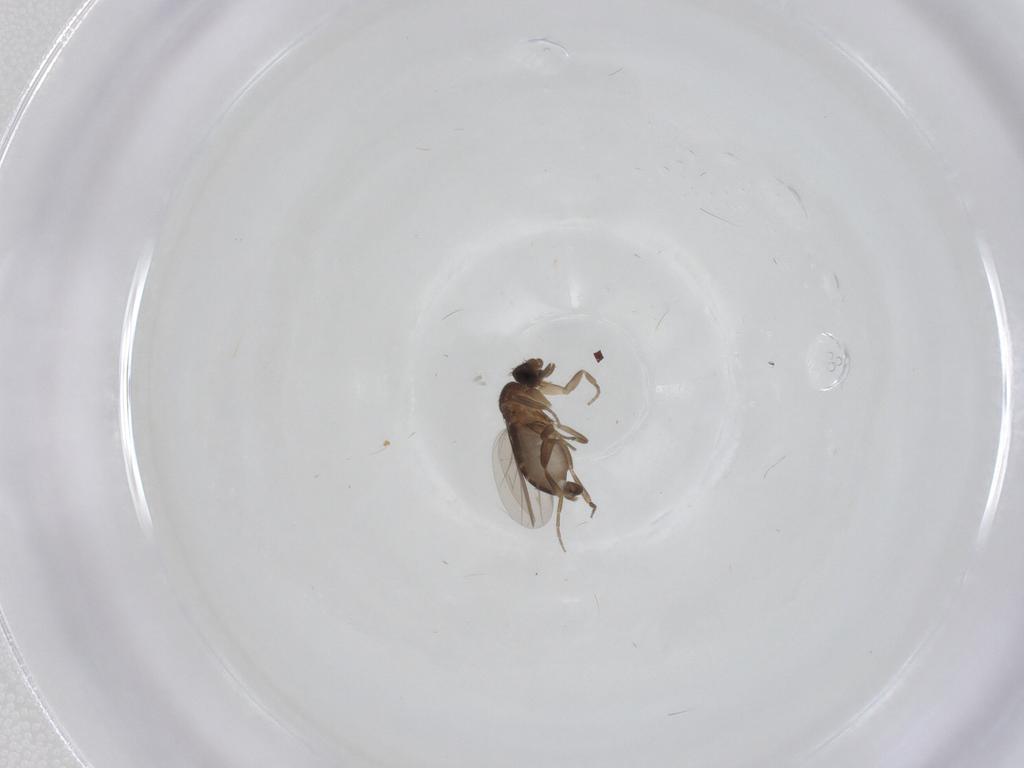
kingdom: Animalia
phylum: Arthropoda
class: Insecta
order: Diptera
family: Phoridae
